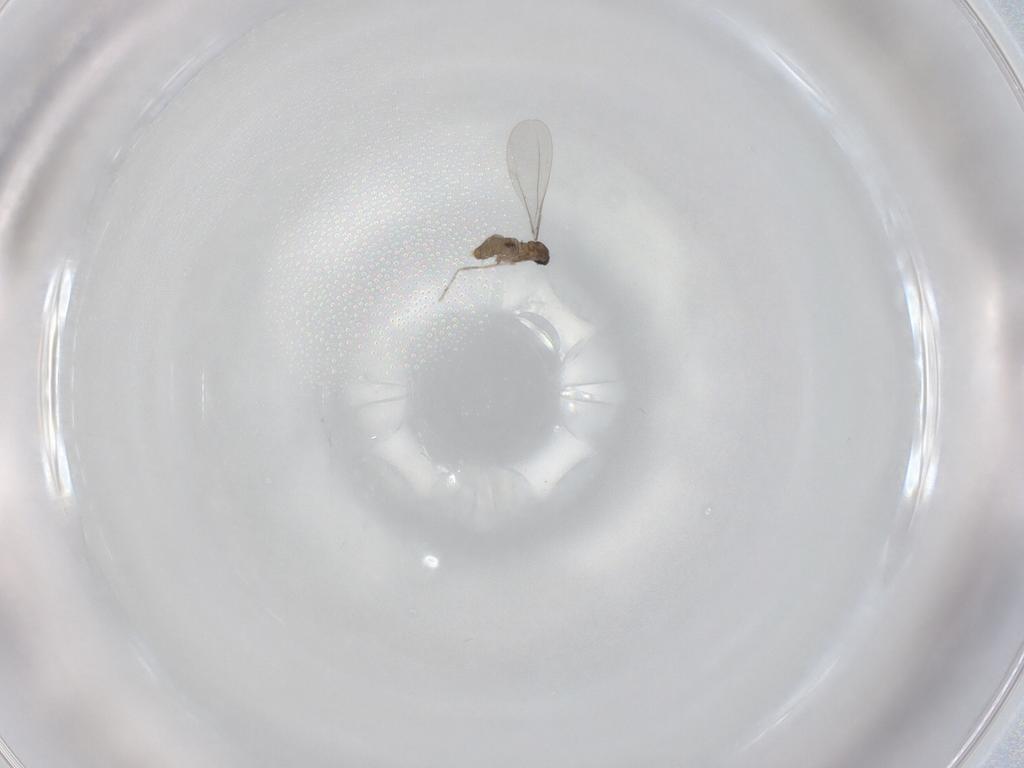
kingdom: Animalia
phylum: Arthropoda
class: Insecta
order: Diptera
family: Cecidomyiidae
